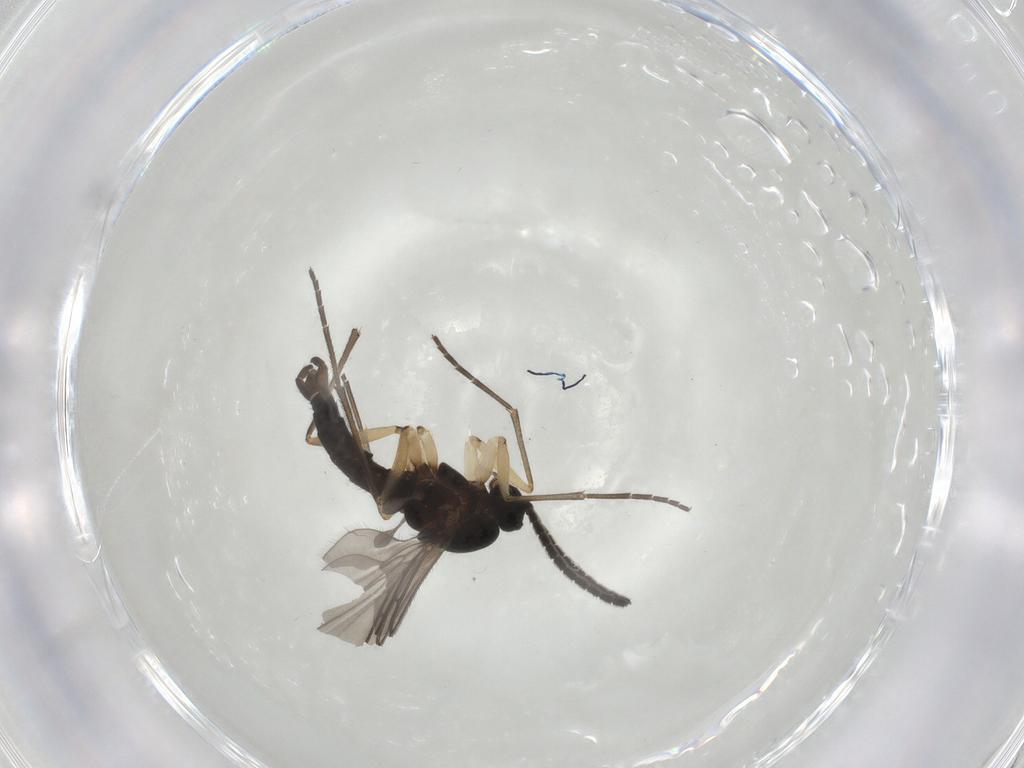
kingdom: Animalia
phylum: Arthropoda
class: Insecta
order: Diptera
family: Sciaridae
